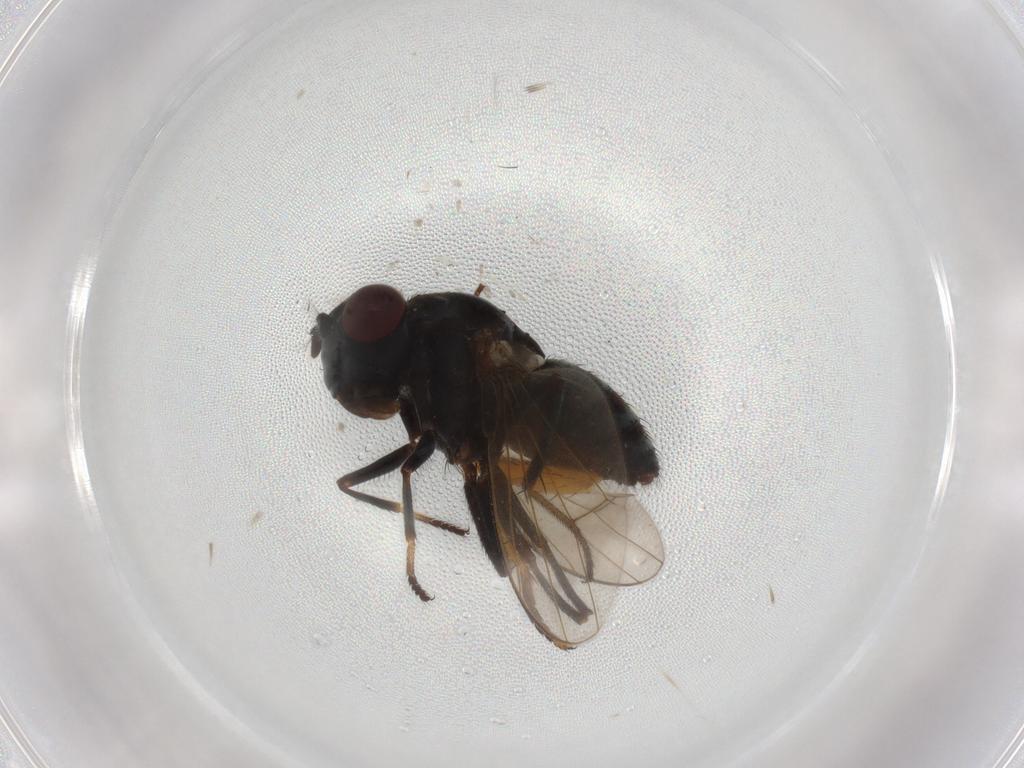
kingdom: Animalia
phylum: Arthropoda
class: Insecta
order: Diptera
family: Ephydridae
